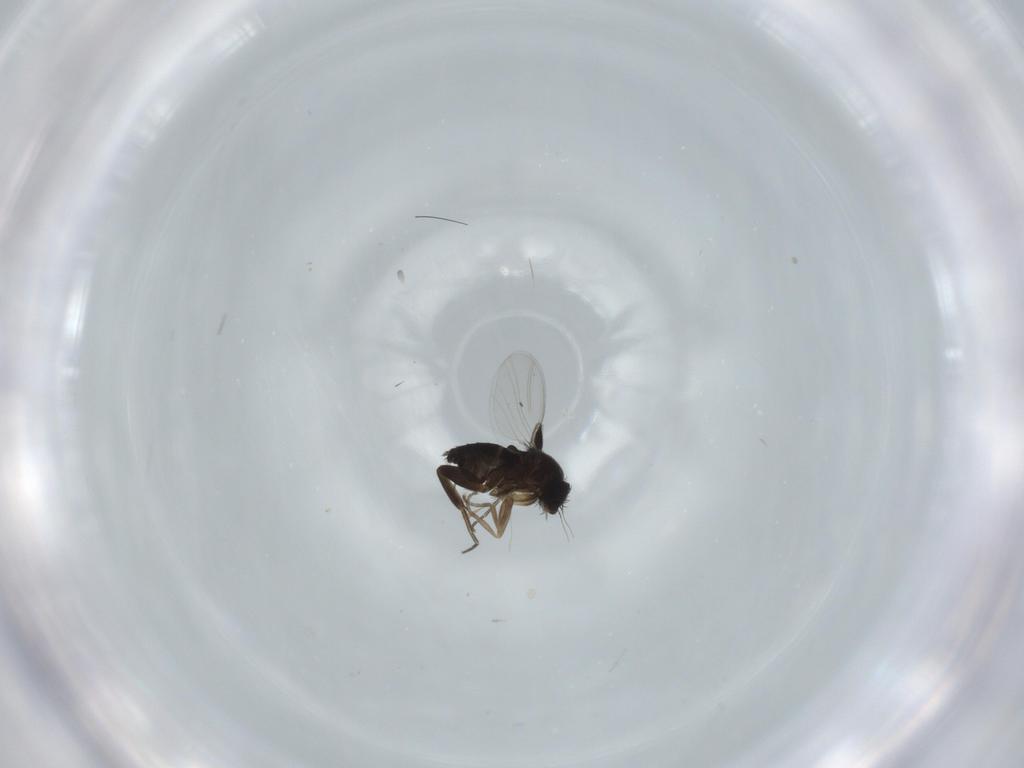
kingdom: Animalia
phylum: Arthropoda
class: Insecta
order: Diptera
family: Phoridae
